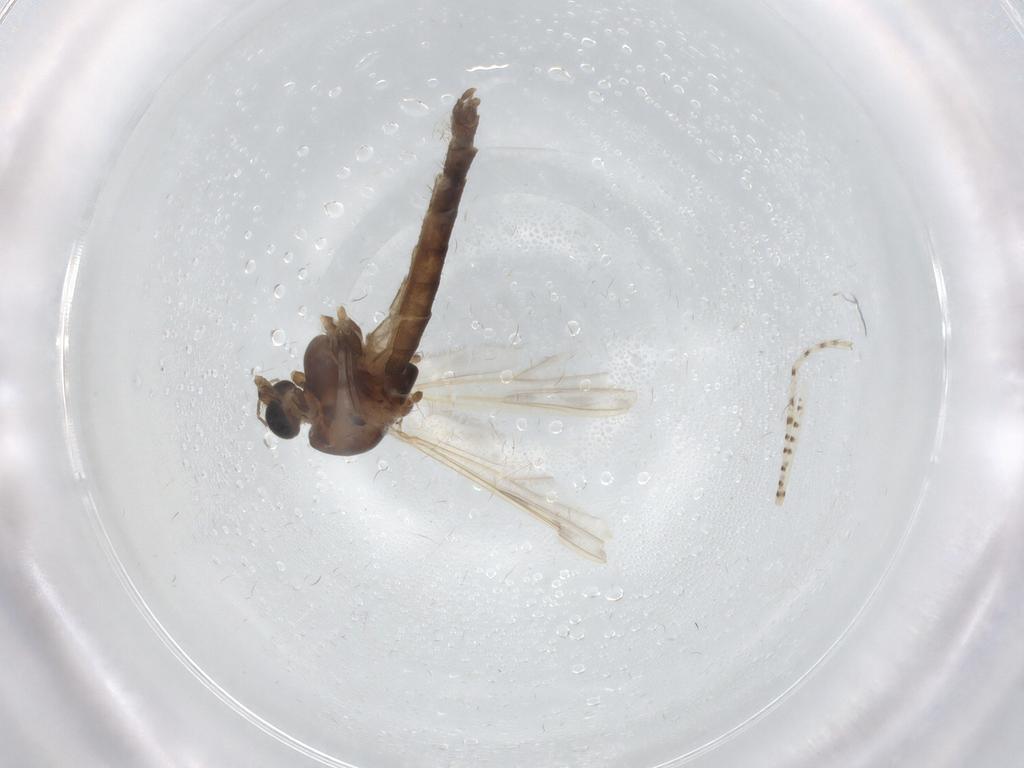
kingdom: Animalia
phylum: Arthropoda
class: Insecta
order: Diptera
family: Chironomidae
